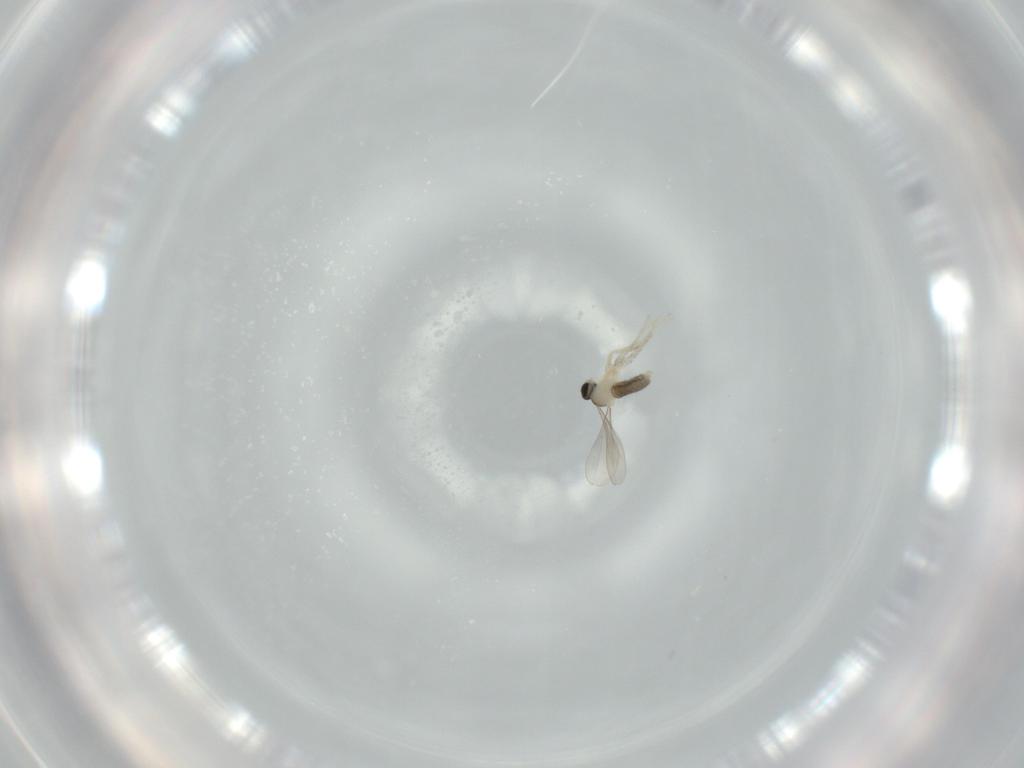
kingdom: Animalia
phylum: Arthropoda
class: Insecta
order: Diptera
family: Cecidomyiidae
